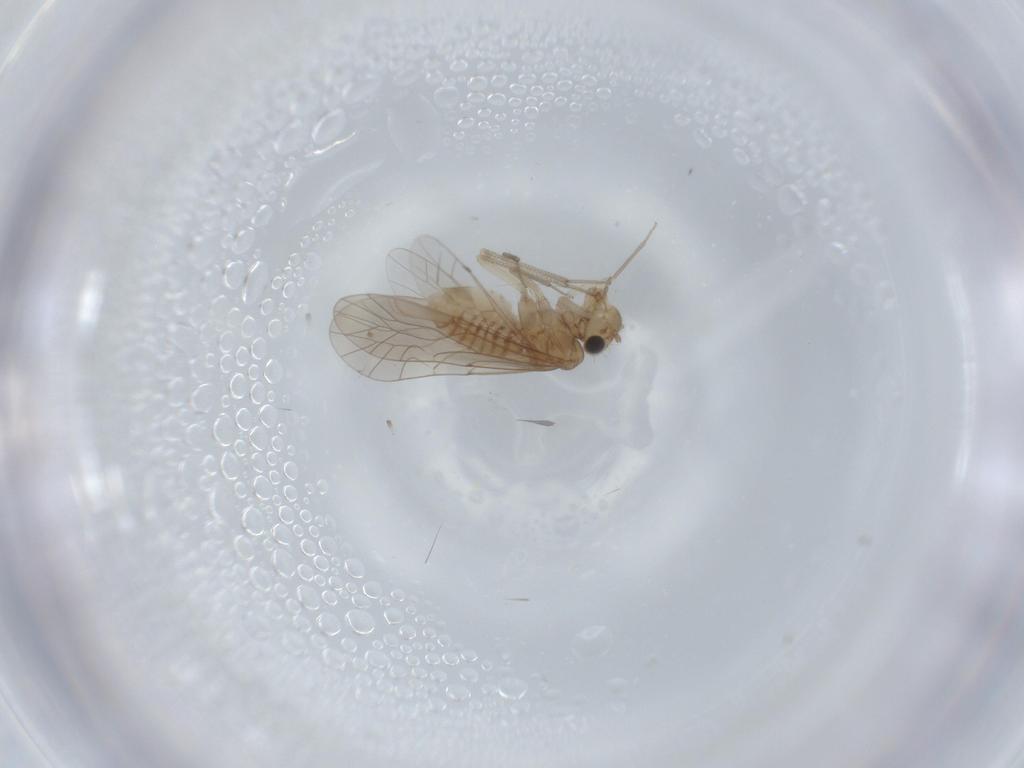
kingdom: Animalia
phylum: Arthropoda
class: Insecta
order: Psocodea
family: Lachesillidae
